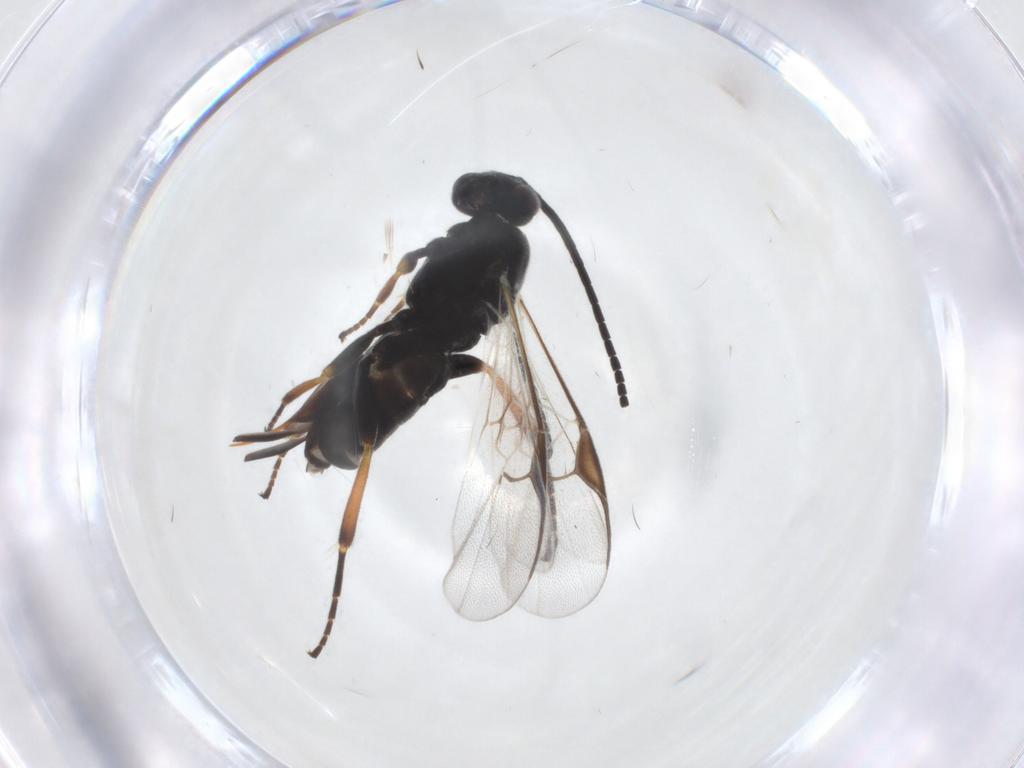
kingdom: Animalia
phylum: Arthropoda
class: Insecta
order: Hymenoptera
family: Braconidae
